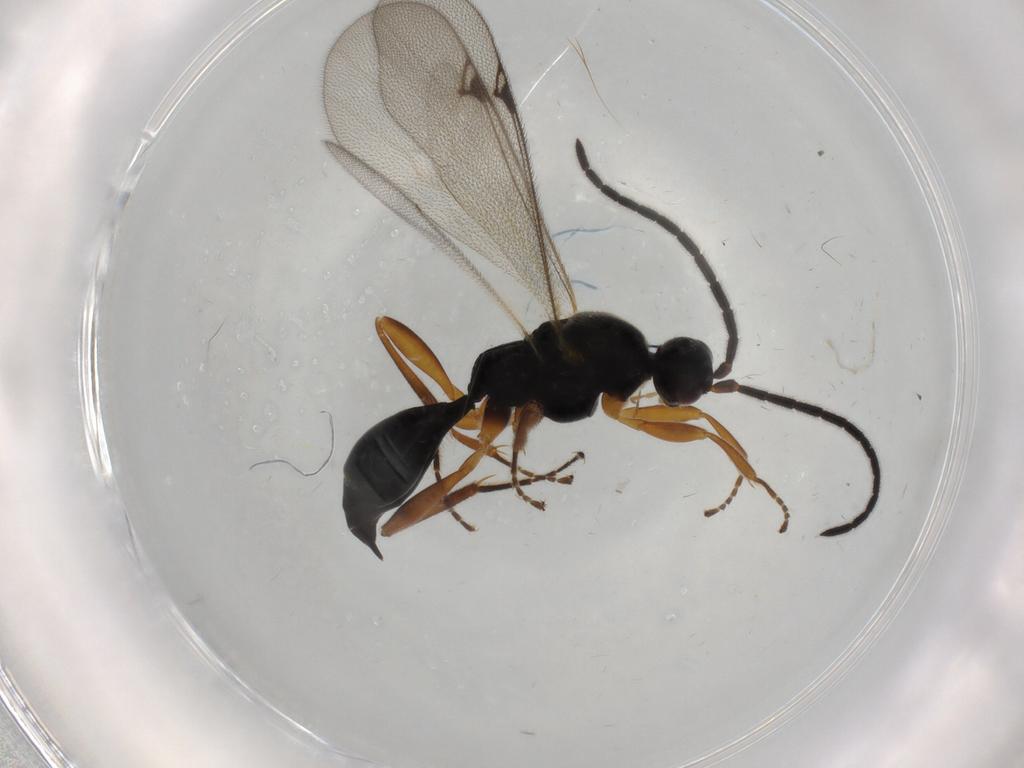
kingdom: Animalia
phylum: Arthropoda
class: Insecta
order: Hymenoptera
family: Proctotrupidae
